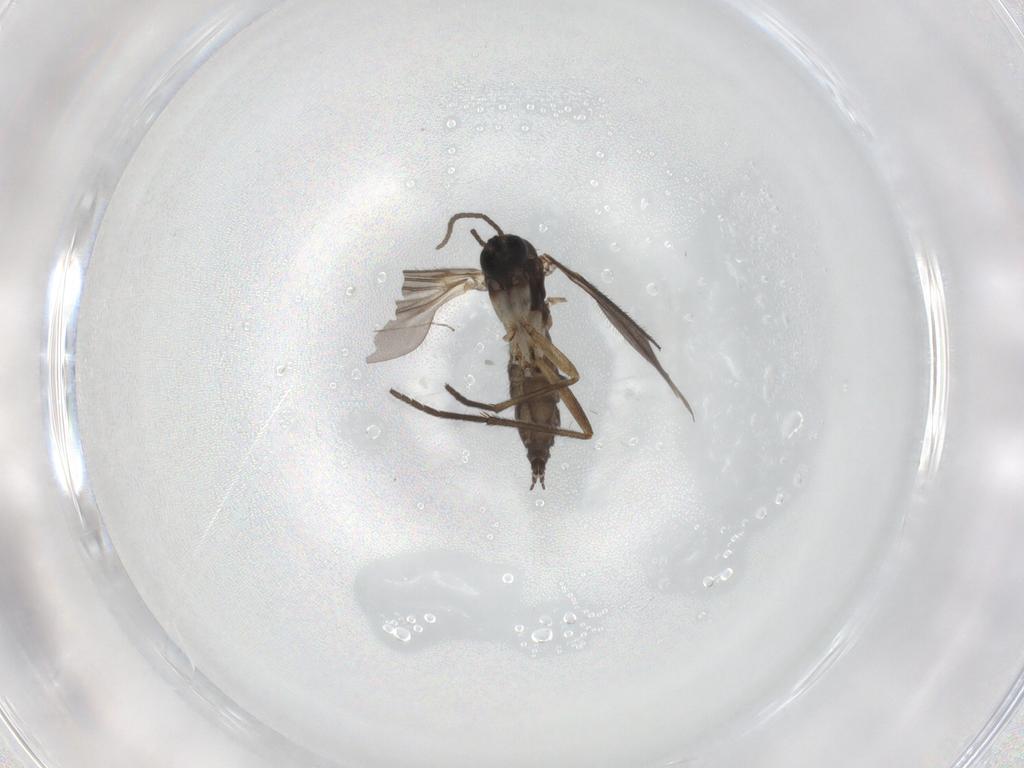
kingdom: Animalia
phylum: Arthropoda
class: Insecta
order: Diptera
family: Sciaridae
